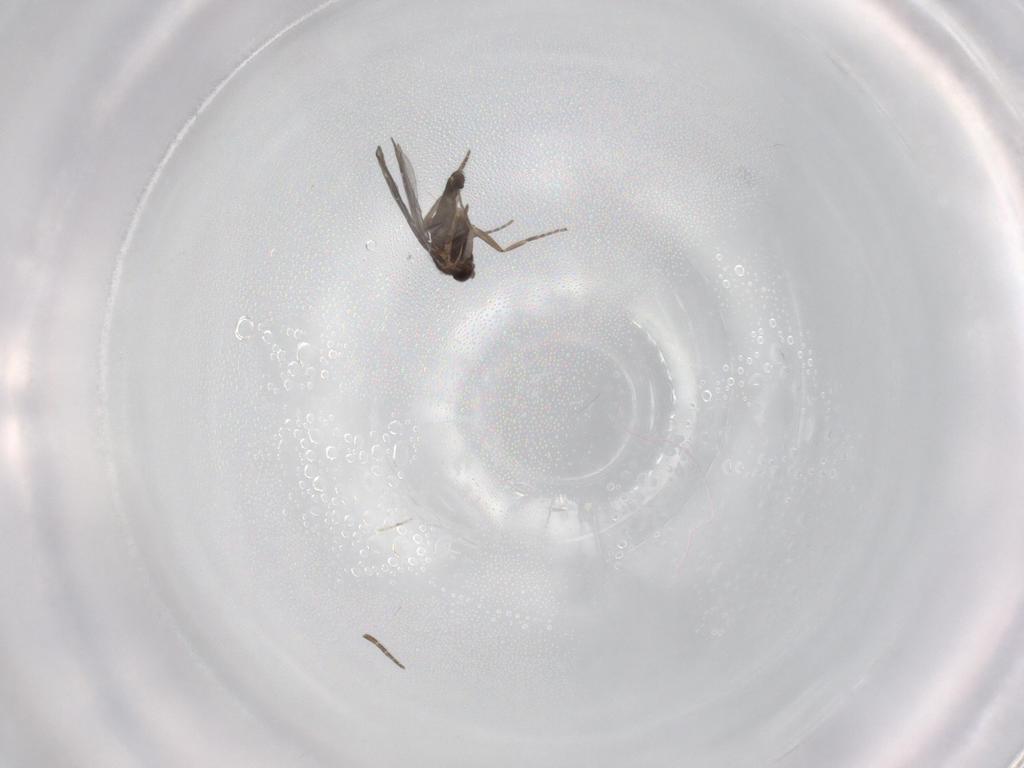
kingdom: Animalia
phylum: Arthropoda
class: Insecta
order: Diptera
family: Phoridae
